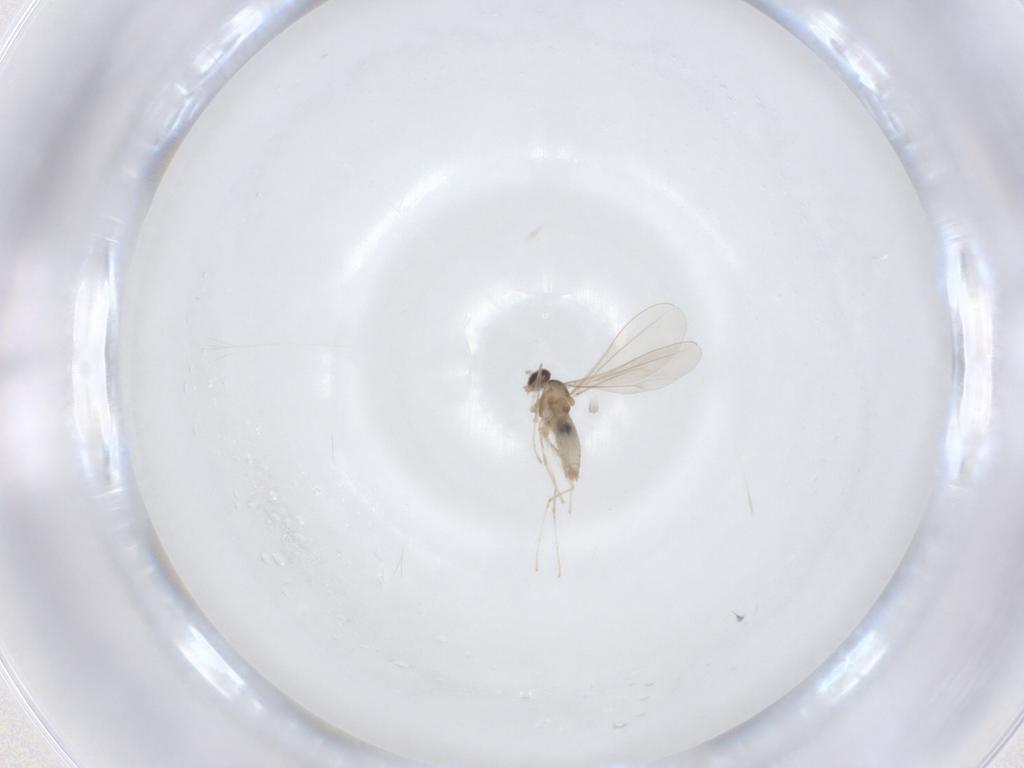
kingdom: Animalia
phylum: Arthropoda
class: Insecta
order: Diptera
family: Cecidomyiidae
